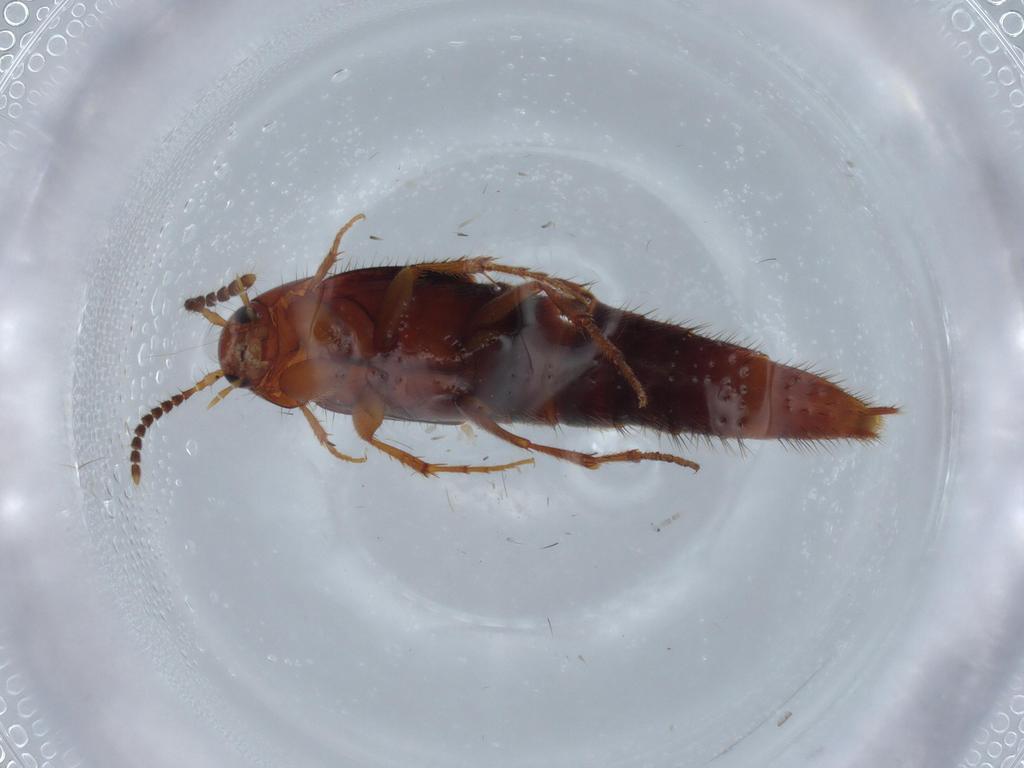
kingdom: Animalia
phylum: Arthropoda
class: Insecta
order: Coleoptera
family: Staphylinidae
